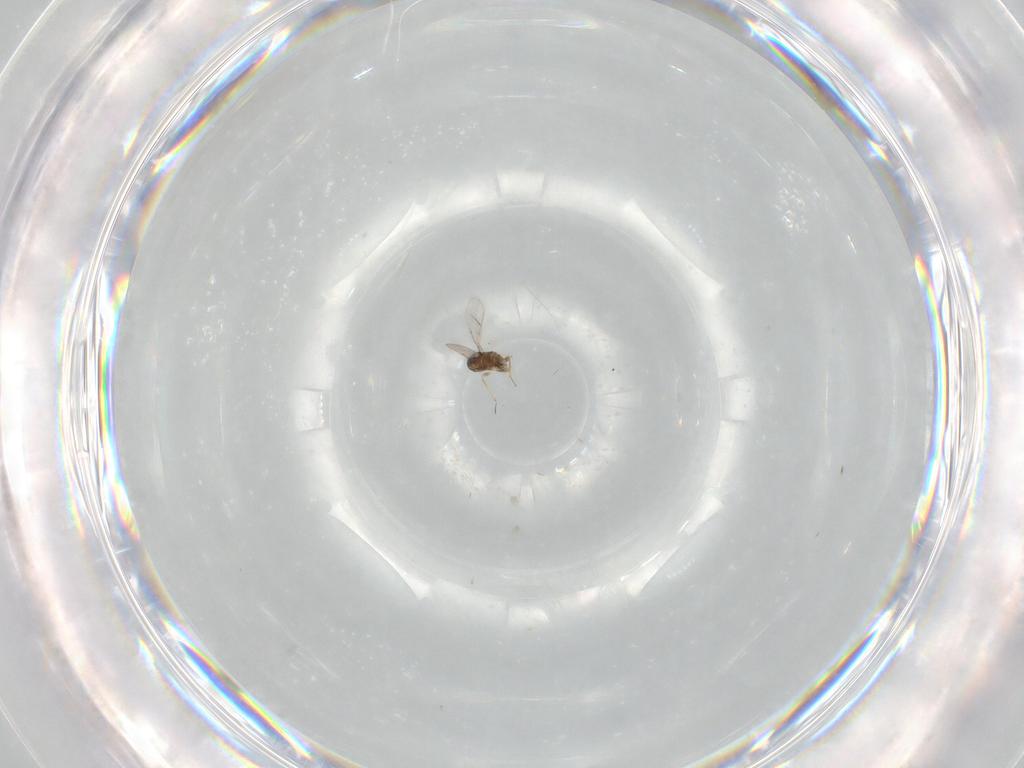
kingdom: Animalia
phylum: Arthropoda
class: Insecta
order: Hymenoptera
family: Encyrtidae
